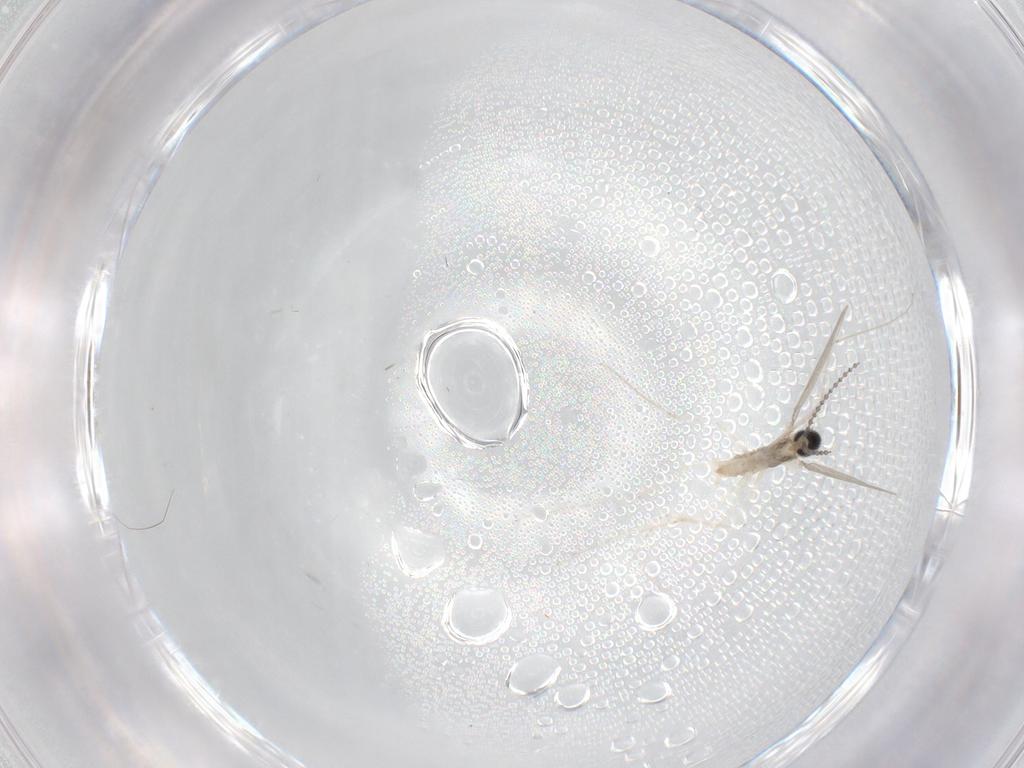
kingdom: Animalia
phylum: Arthropoda
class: Insecta
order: Diptera
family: Cecidomyiidae
